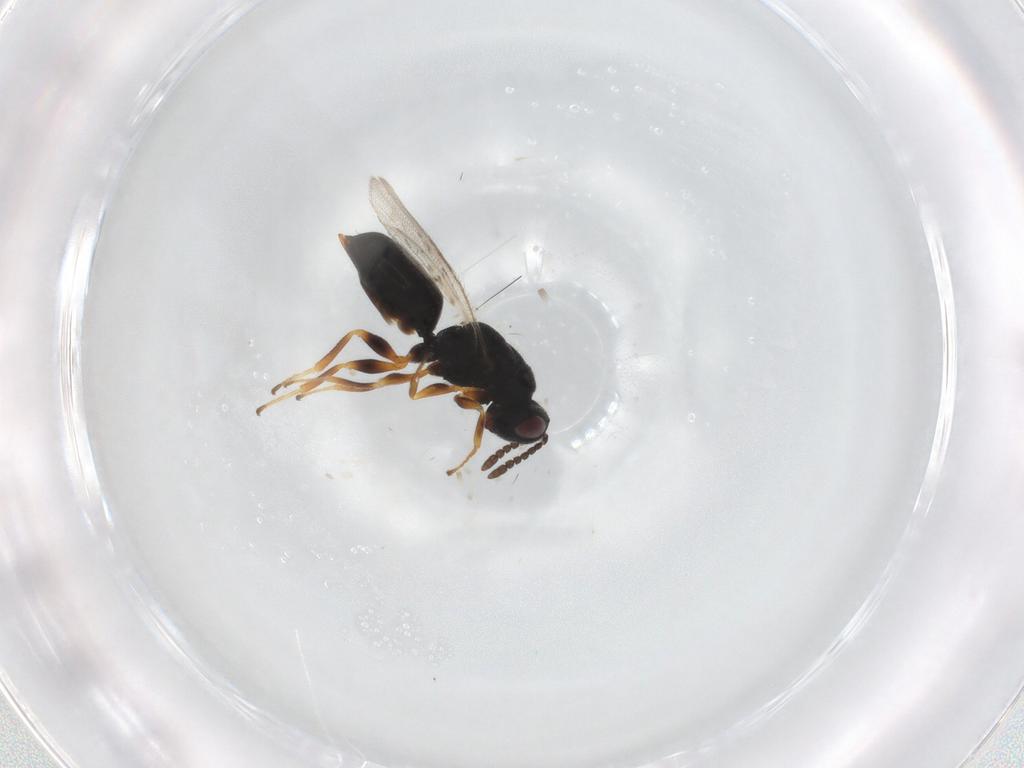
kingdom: Animalia
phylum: Arthropoda
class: Insecta
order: Hymenoptera
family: Eurytomidae
